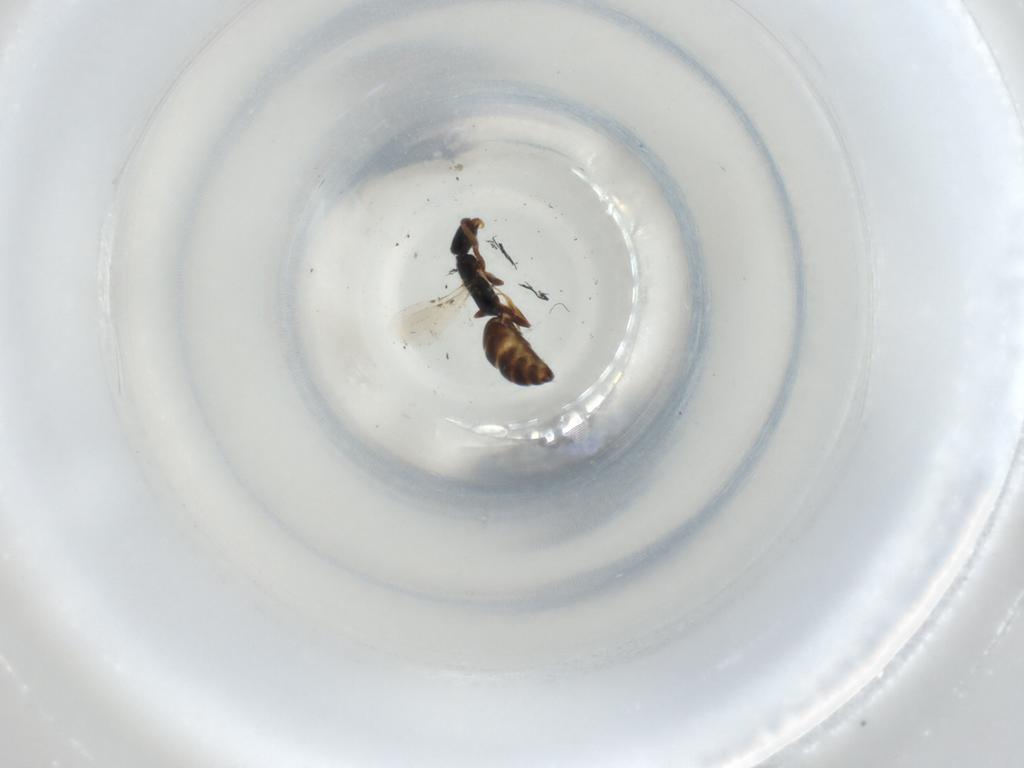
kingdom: Animalia
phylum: Arthropoda
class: Insecta
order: Hymenoptera
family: Bethylidae
